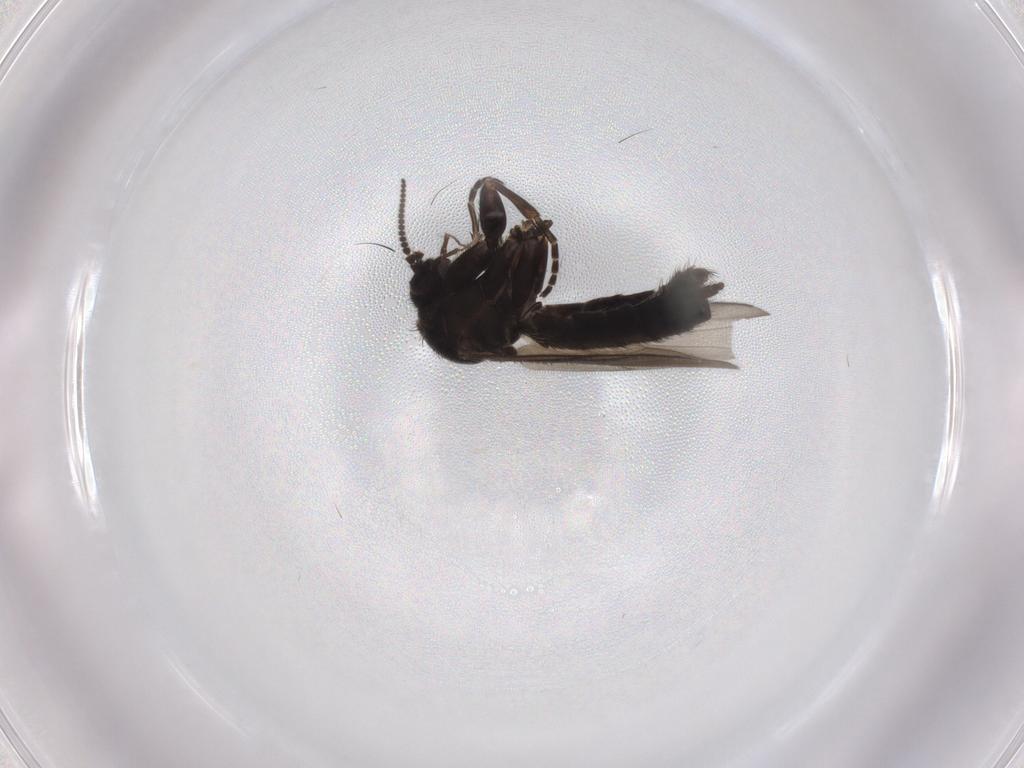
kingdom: Animalia
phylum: Arthropoda
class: Insecta
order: Diptera
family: Mycetophilidae
